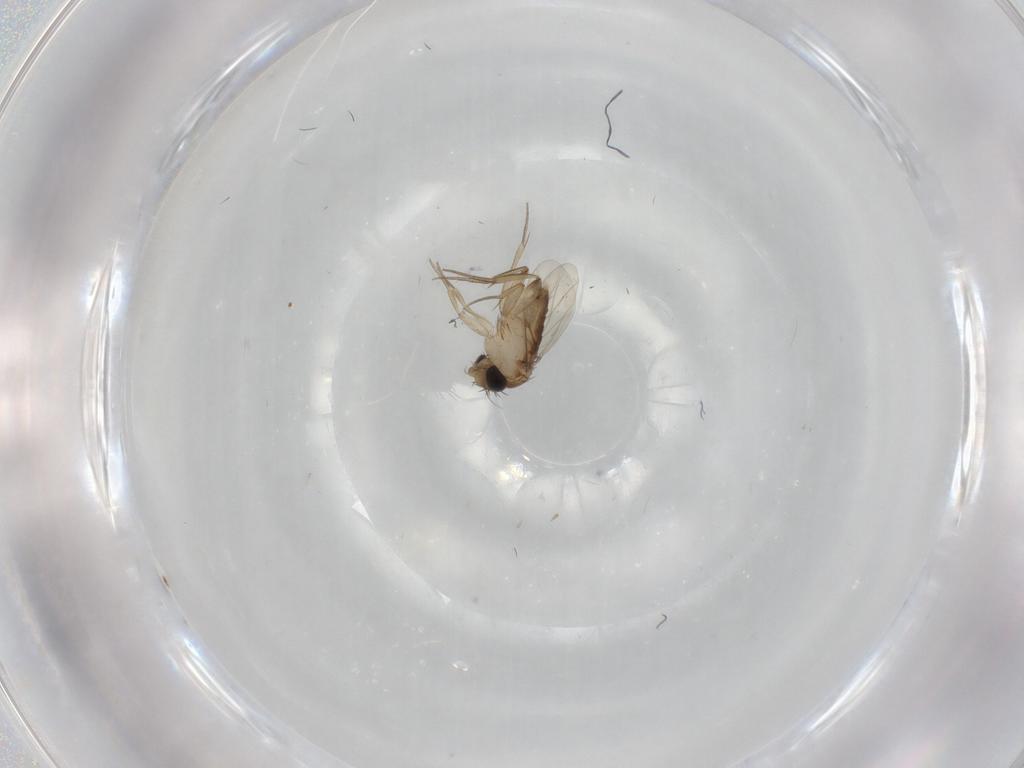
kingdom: Animalia
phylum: Arthropoda
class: Insecta
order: Diptera
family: Phoridae
